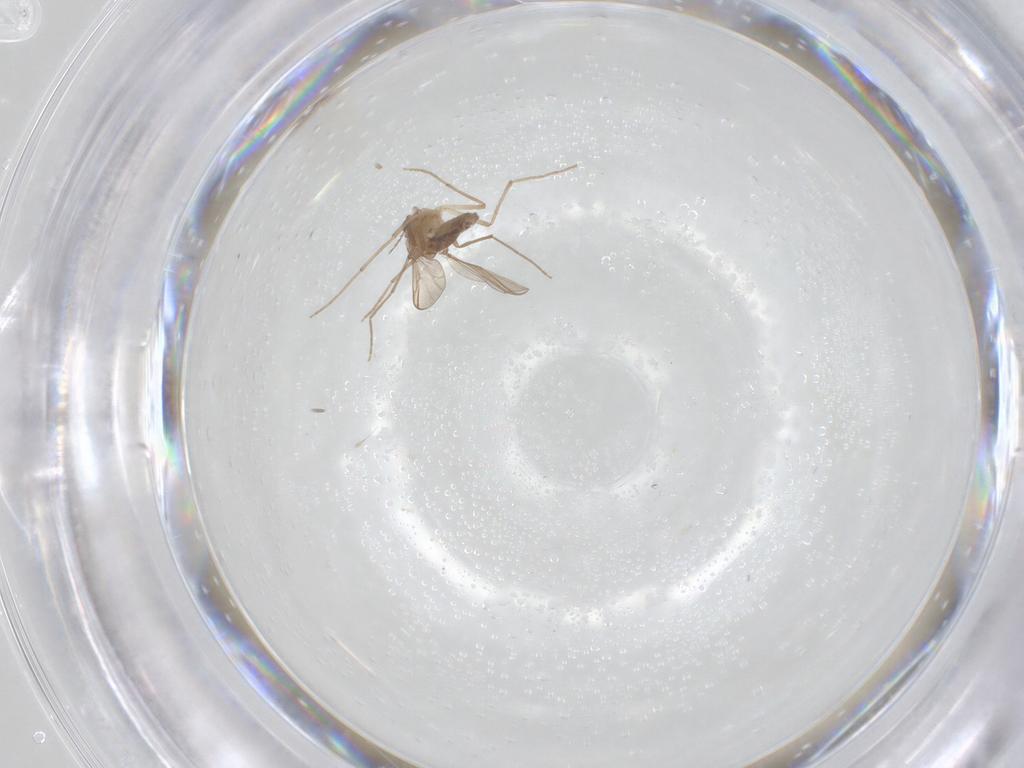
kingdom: Animalia
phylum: Arthropoda
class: Insecta
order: Diptera
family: Chironomidae
